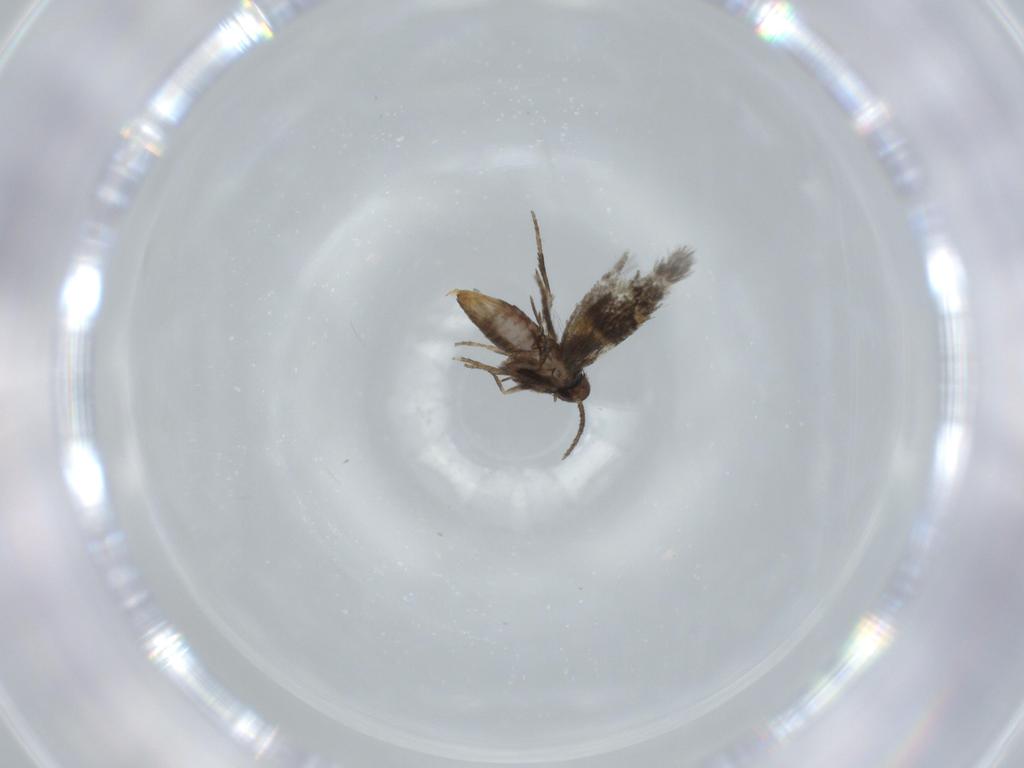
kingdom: Animalia
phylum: Arthropoda
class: Insecta
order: Lepidoptera
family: Heliozelidae
